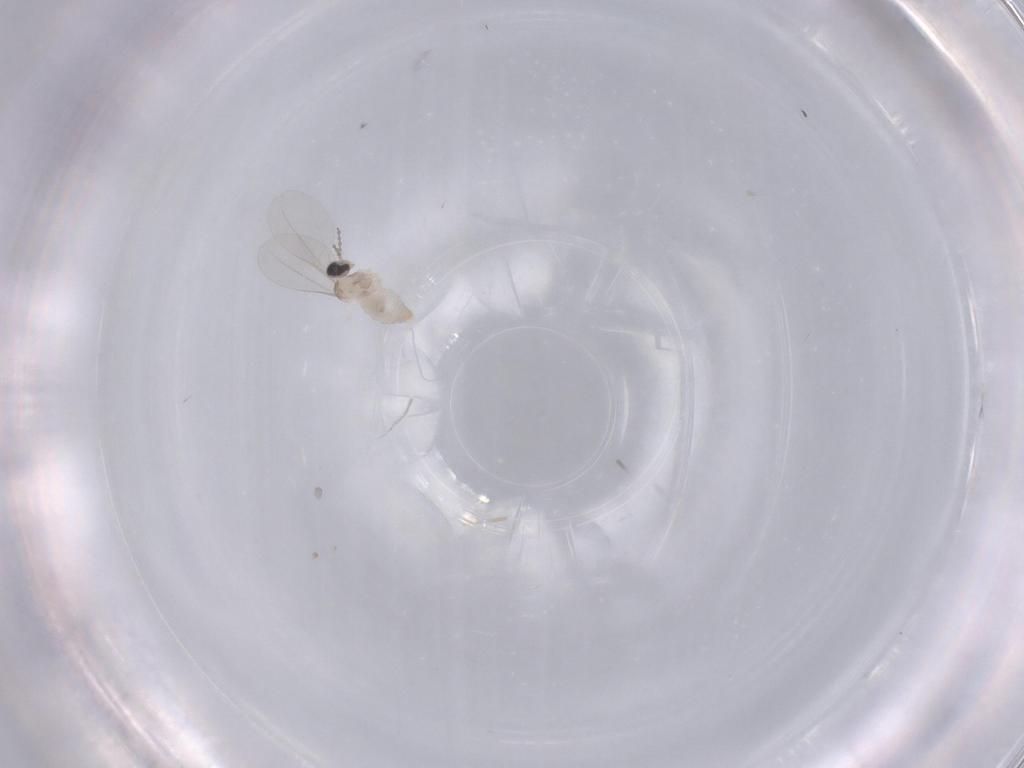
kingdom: Animalia
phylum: Arthropoda
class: Insecta
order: Diptera
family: Cecidomyiidae
